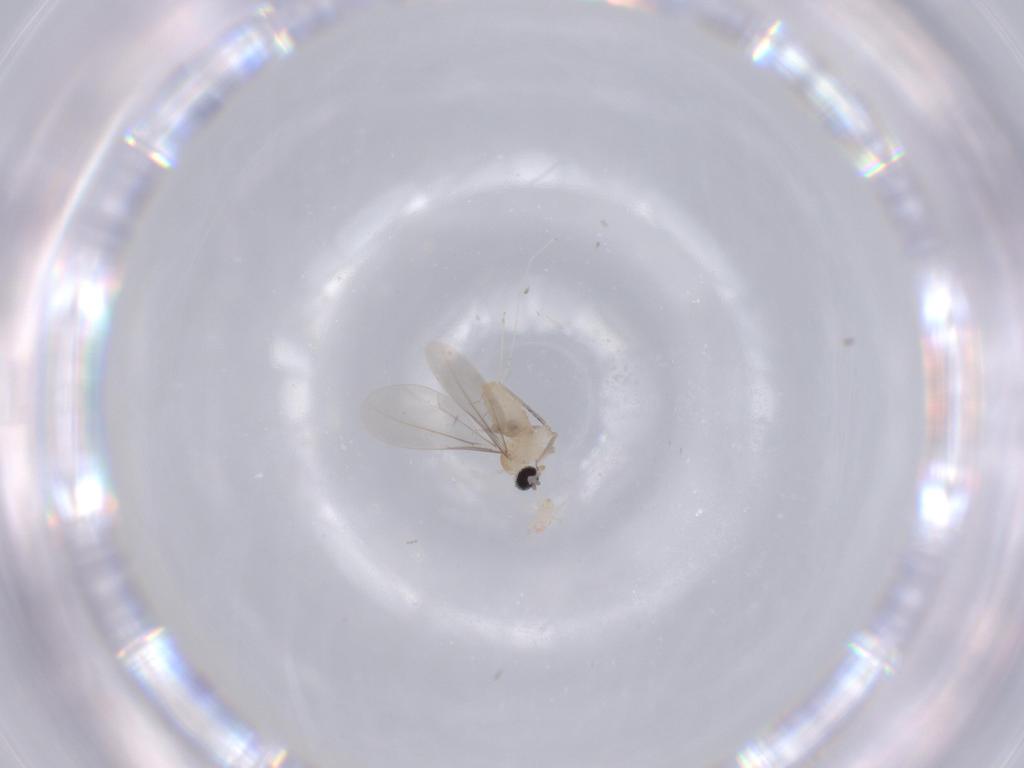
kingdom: Animalia
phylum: Arthropoda
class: Insecta
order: Diptera
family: Cecidomyiidae
